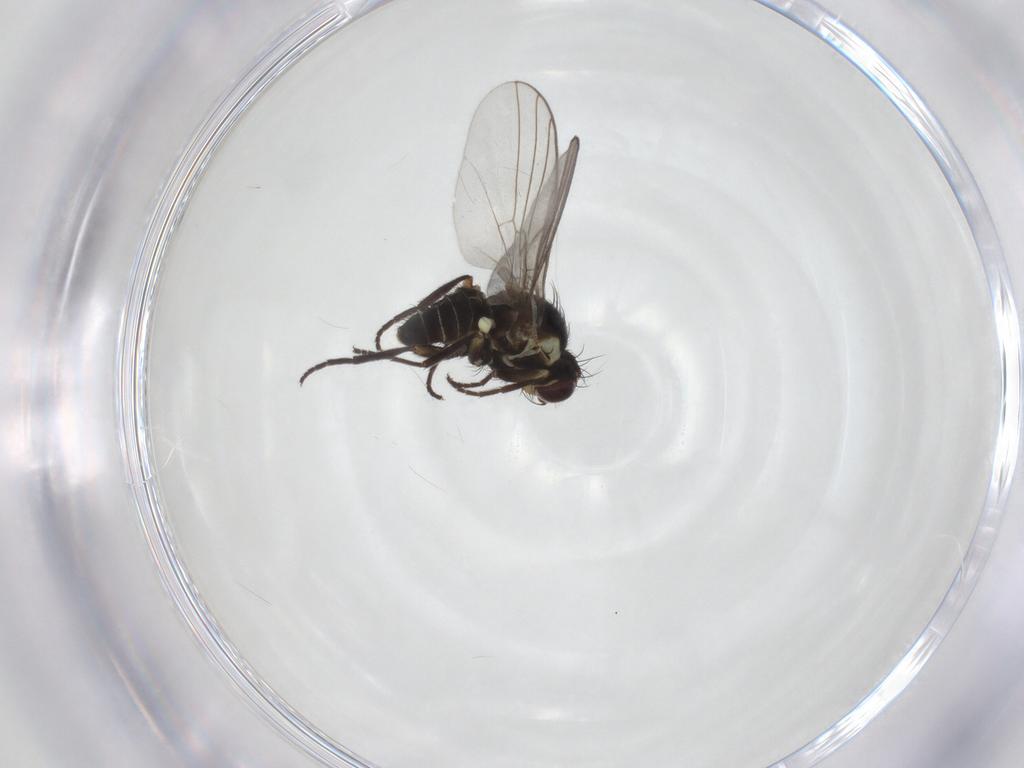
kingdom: Animalia
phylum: Arthropoda
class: Insecta
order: Diptera
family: Agromyzidae
